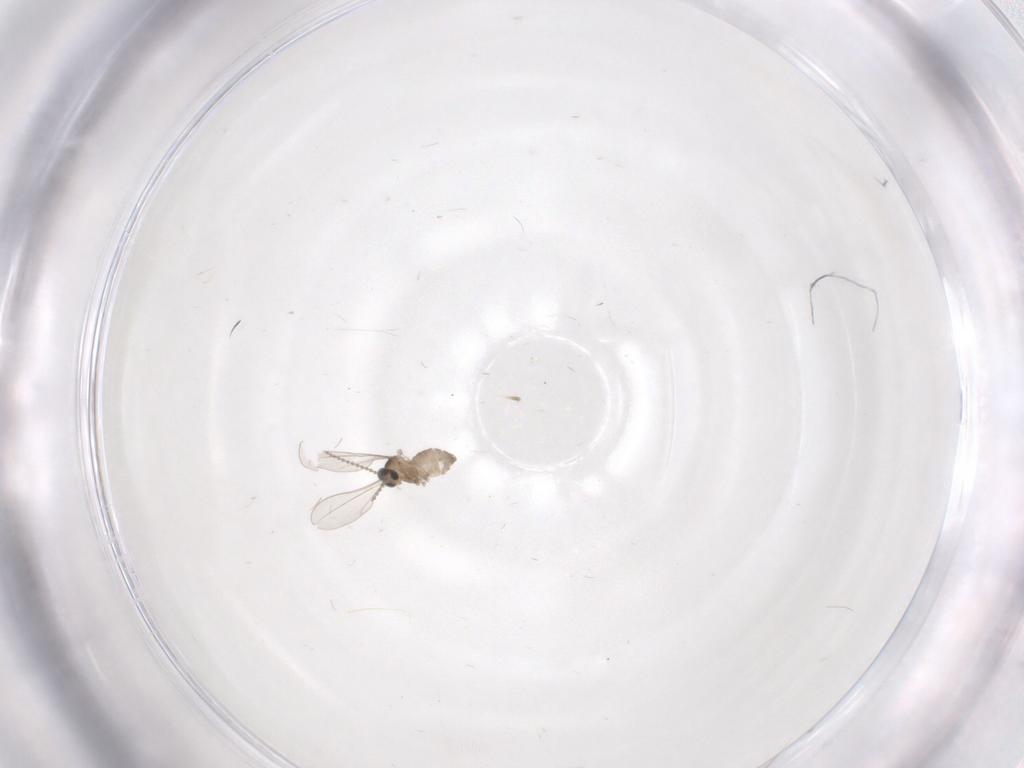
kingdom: Animalia
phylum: Arthropoda
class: Insecta
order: Diptera
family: Cecidomyiidae
